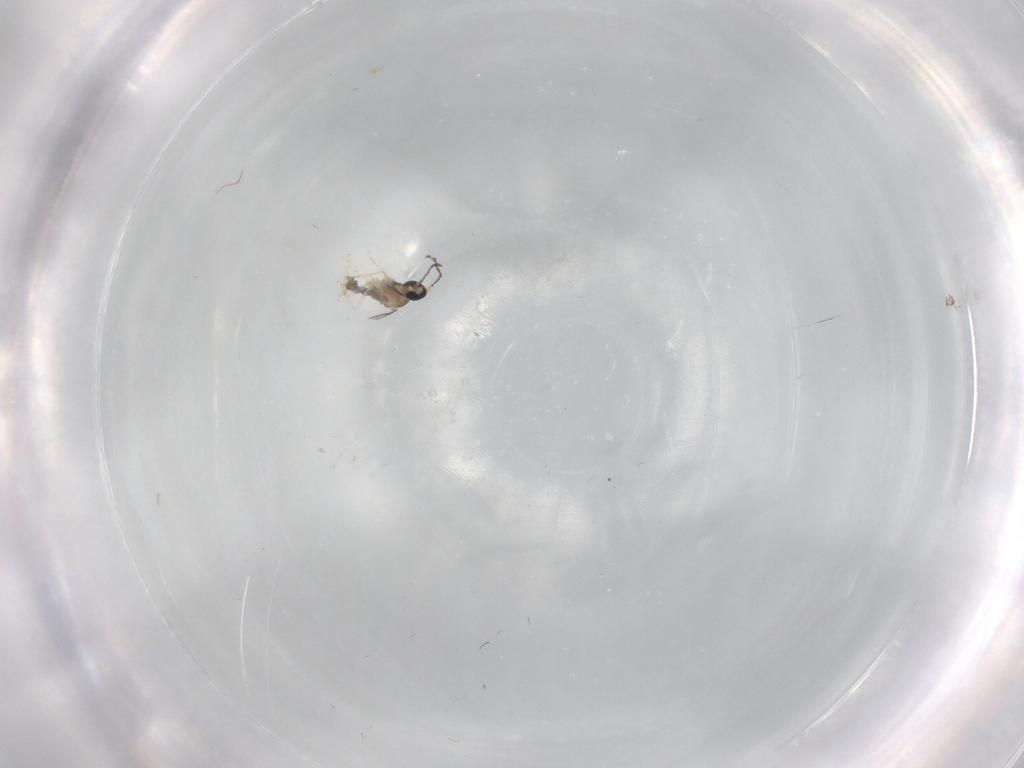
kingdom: Animalia
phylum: Arthropoda
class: Insecta
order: Diptera
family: Cecidomyiidae
